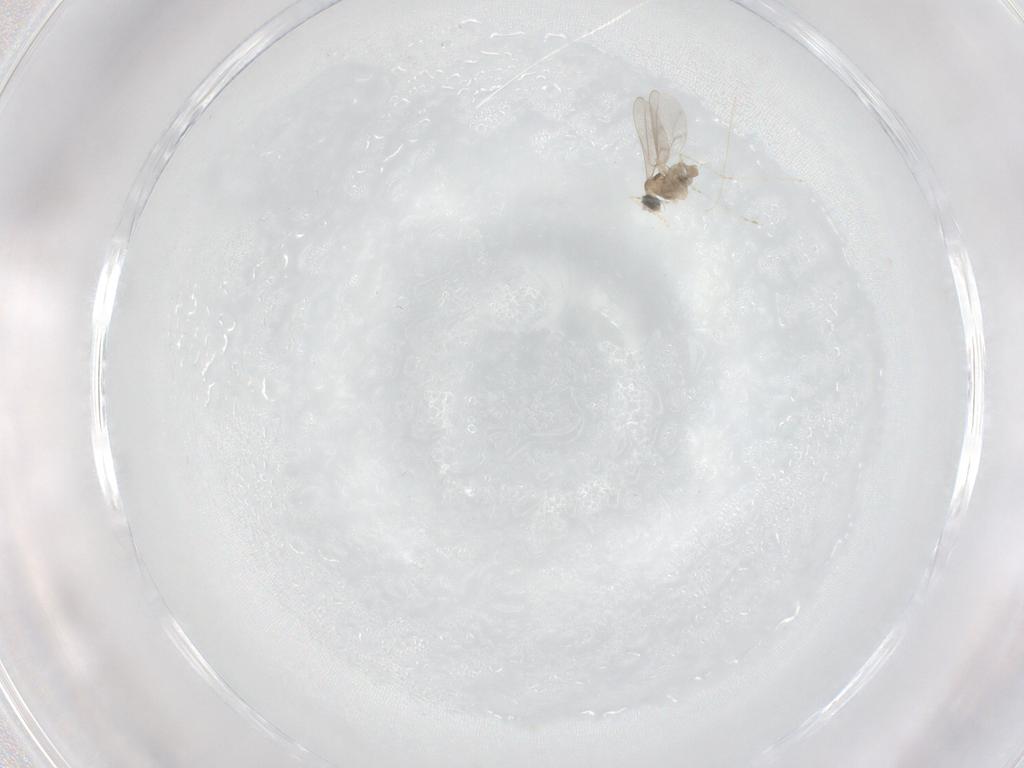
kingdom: Animalia
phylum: Arthropoda
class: Insecta
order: Diptera
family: Cecidomyiidae
